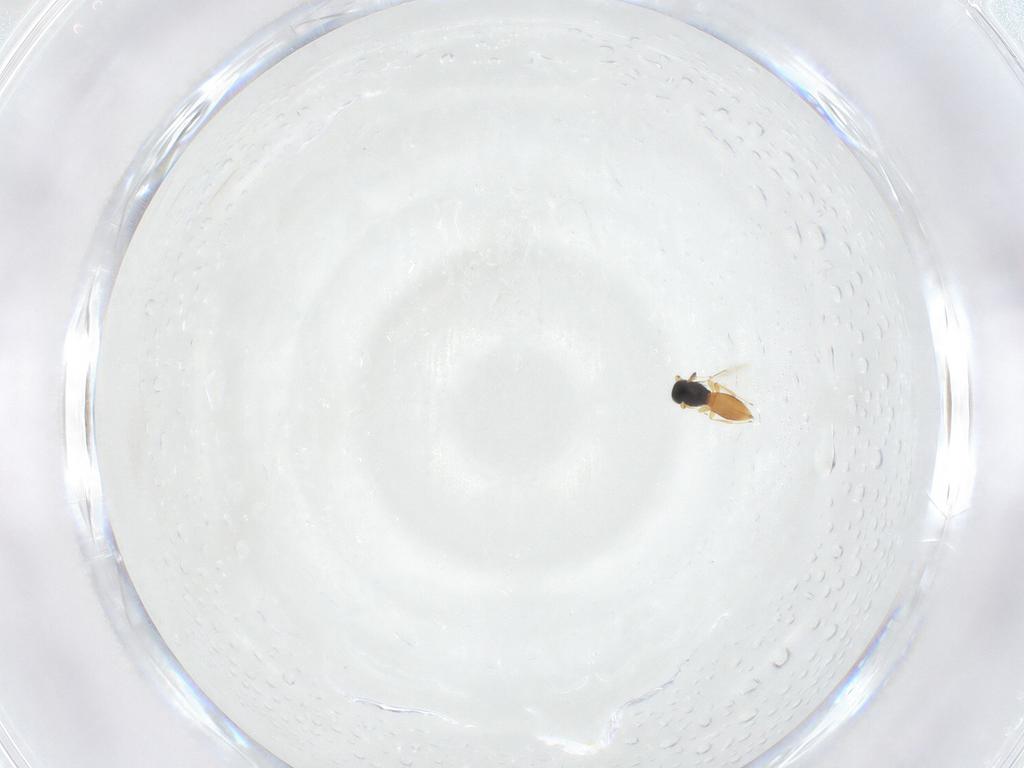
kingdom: Animalia
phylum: Arthropoda
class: Insecta
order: Hymenoptera
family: Scelionidae
